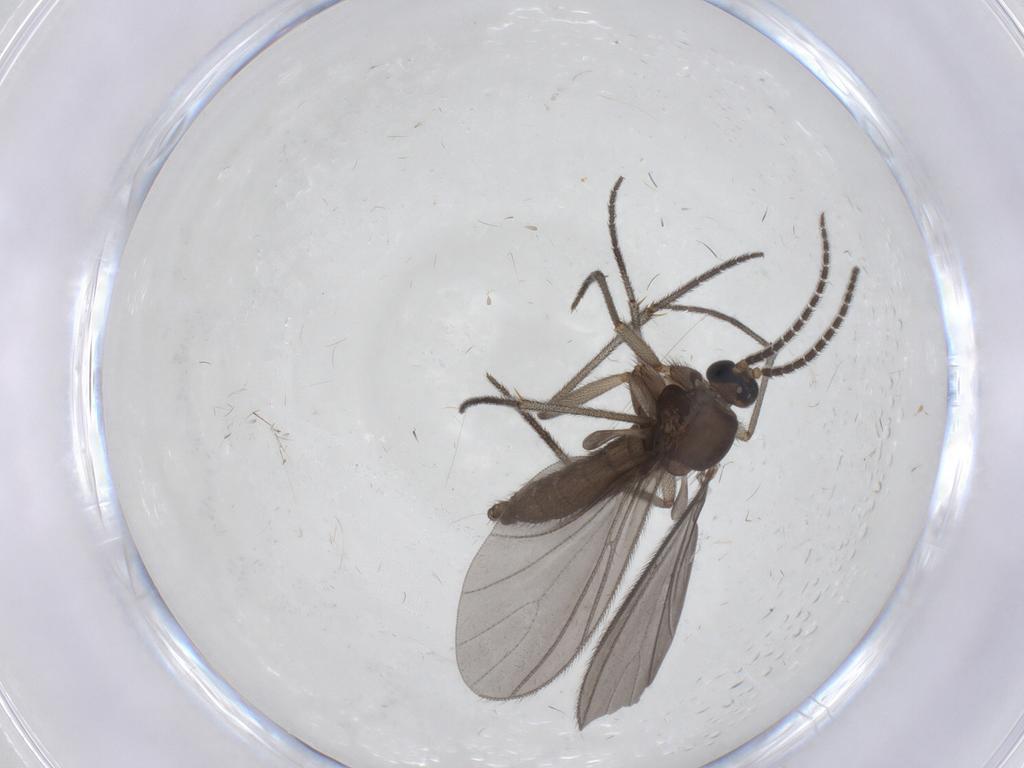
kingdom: Animalia
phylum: Arthropoda
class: Insecta
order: Diptera
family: Sciaridae
